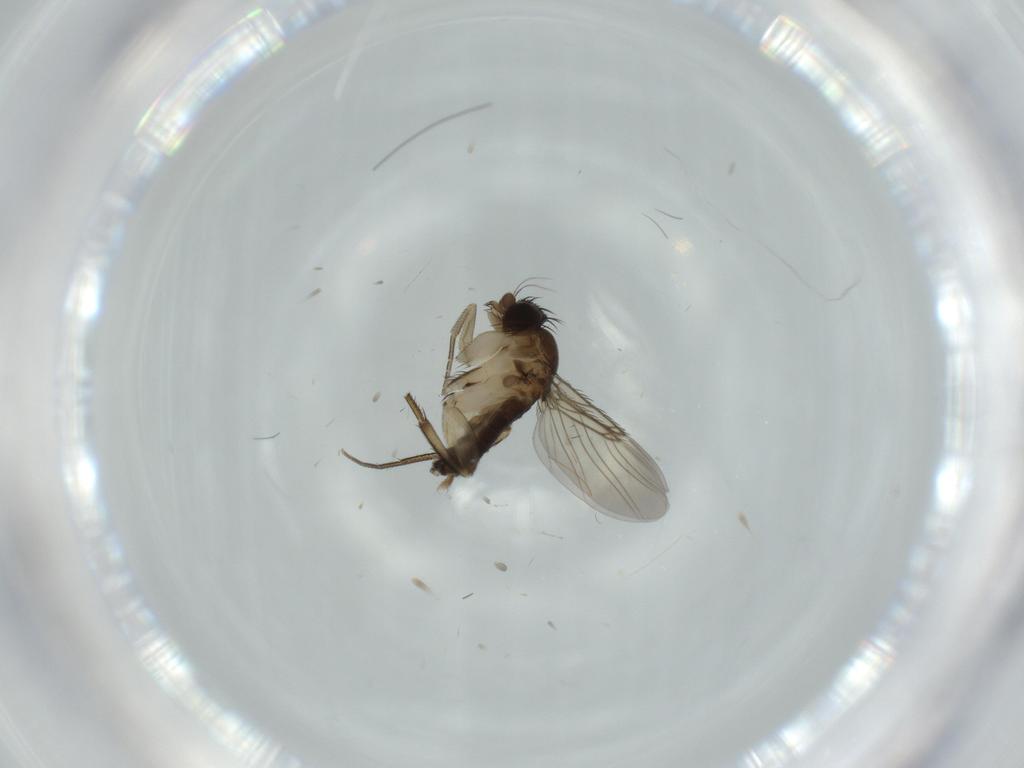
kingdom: Animalia
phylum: Arthropoda
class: Insecta
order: Diptera
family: Phoridae
